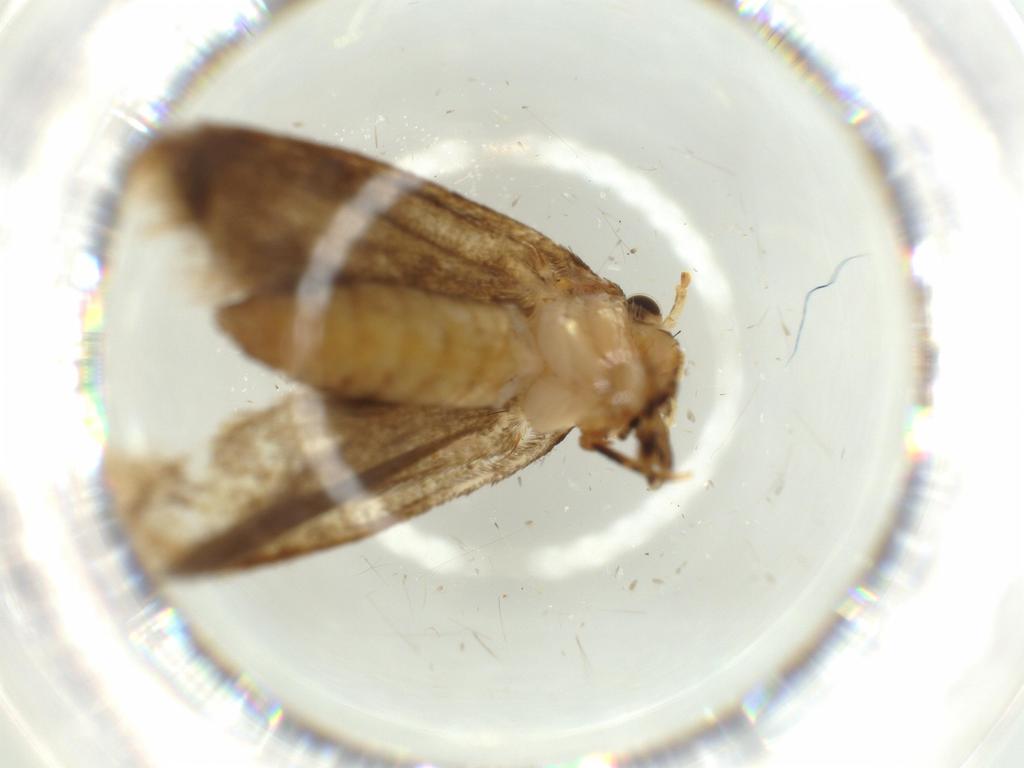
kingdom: Animalia
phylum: Arthropoda
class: Insecta
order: Lepidoptera
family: Tineidae
